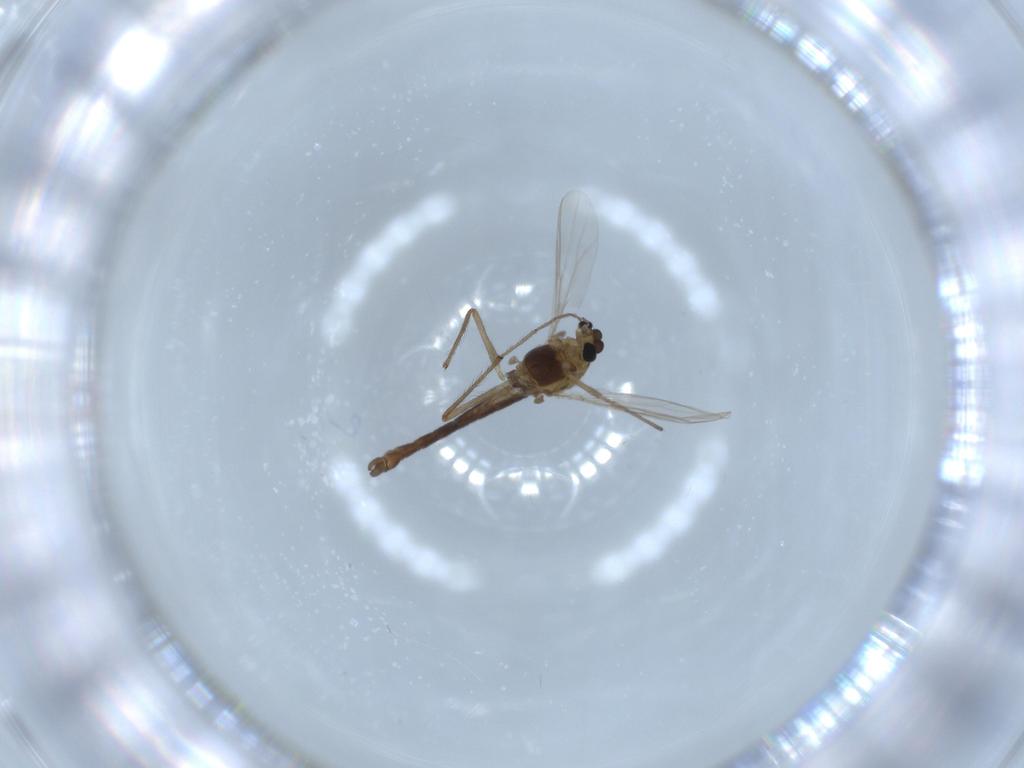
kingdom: Animalia
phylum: Arthropoda
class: Insecta
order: Diptera
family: Chironomidae
